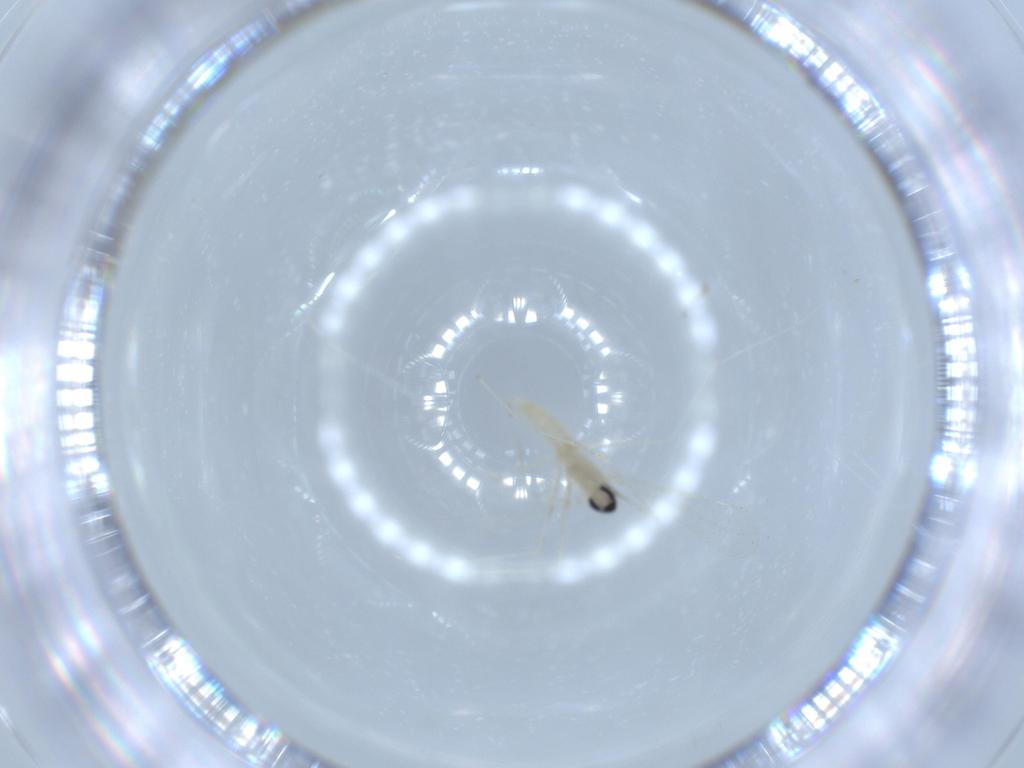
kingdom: Animalia
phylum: Arthropoda
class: Insecta
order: Diptera
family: Cecidomyiidae
